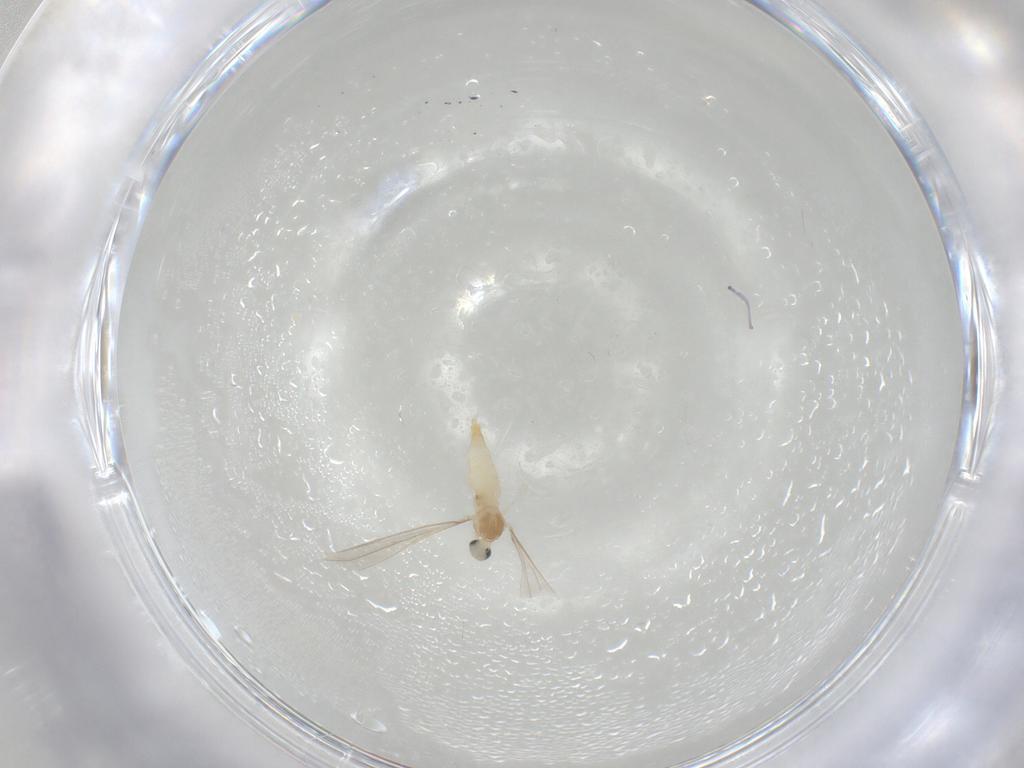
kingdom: Animalia
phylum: Arthropoda
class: Insecta
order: Diptera
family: Cecidomyiidae
